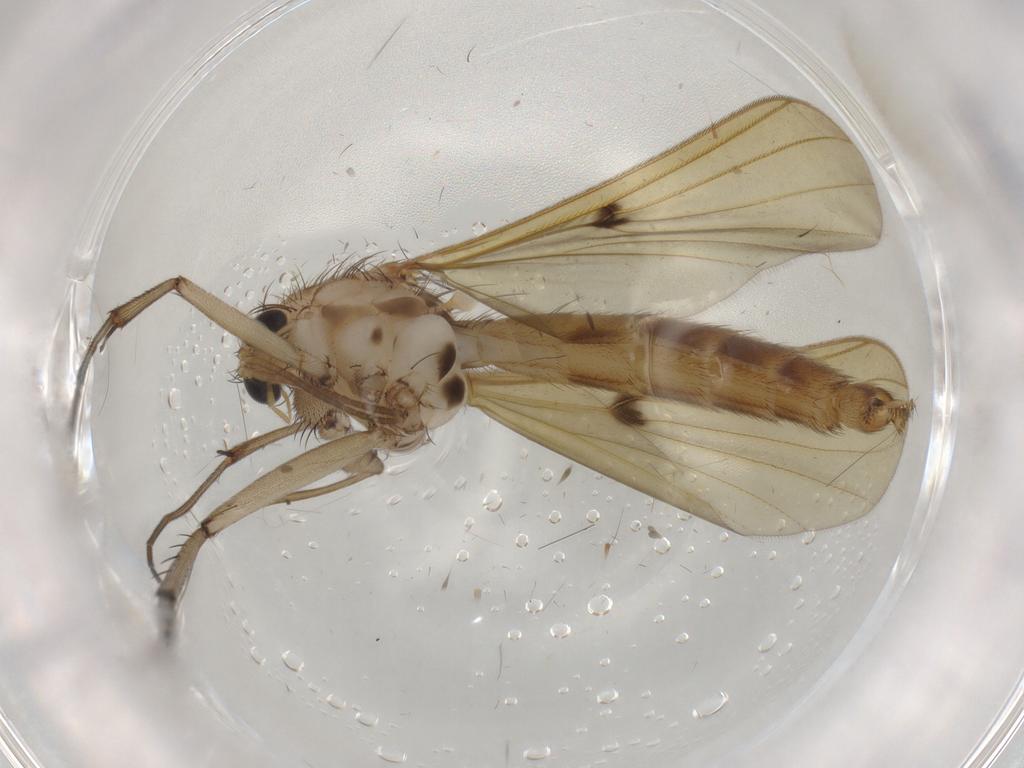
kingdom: Animalia
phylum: Arthropoda
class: Insecta
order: Diptera
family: Mycetophilidae
